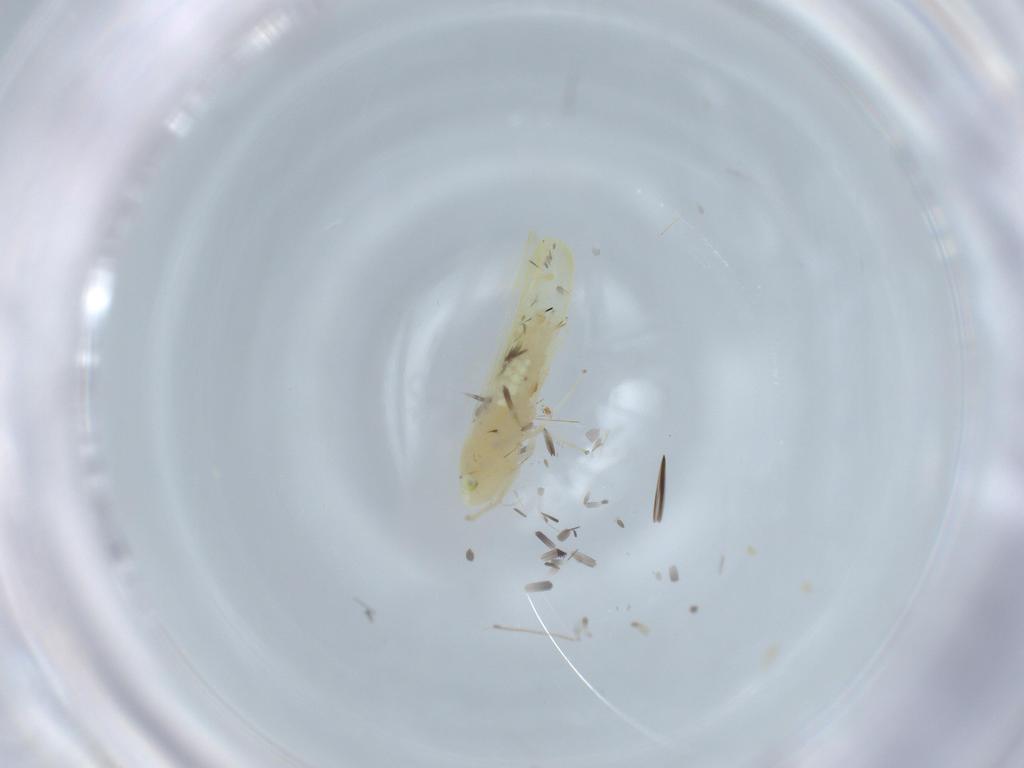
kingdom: Animalia
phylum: Arthropoda
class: Insecta
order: Hemiptera
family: Cicadellidae
